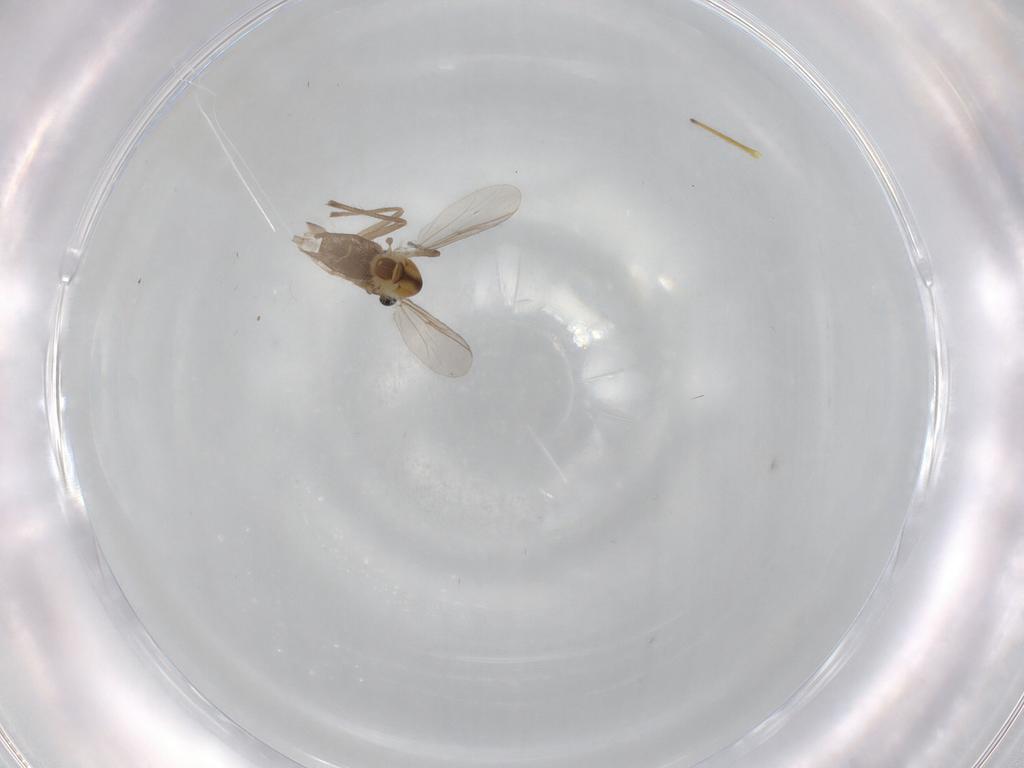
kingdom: Animalia
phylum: Arthropoda
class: Insecta
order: Diptera
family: Chironomidae
